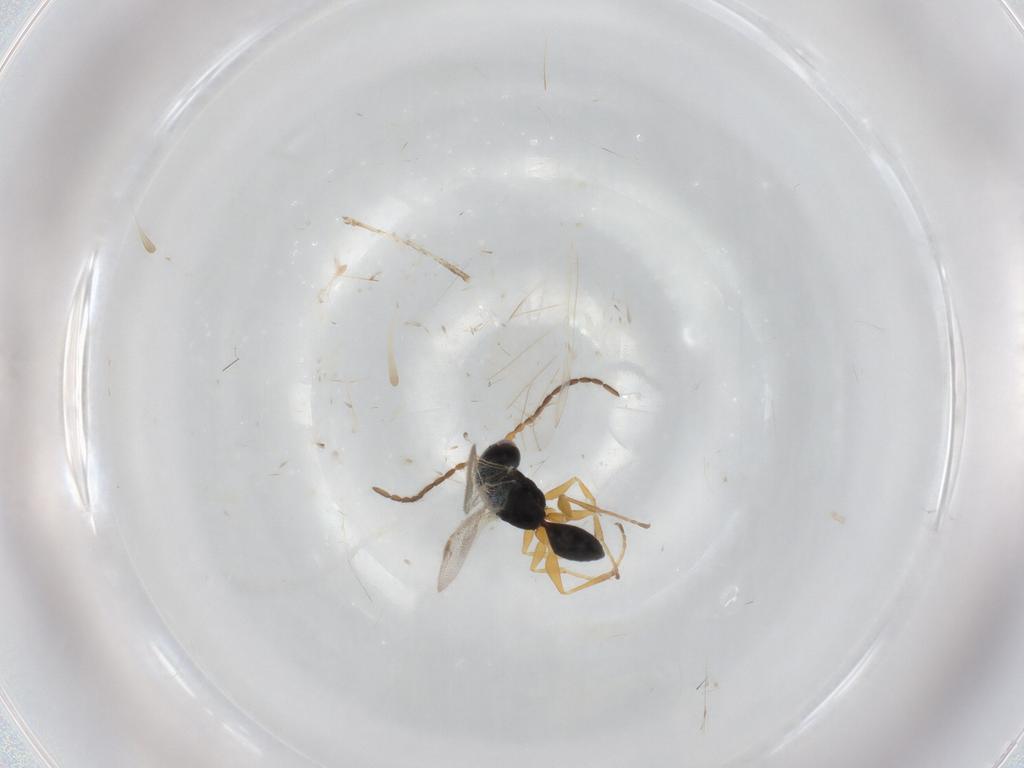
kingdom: Animalia
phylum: Arthropoda
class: Insecta
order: Hymenoptera
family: Dryinidae
